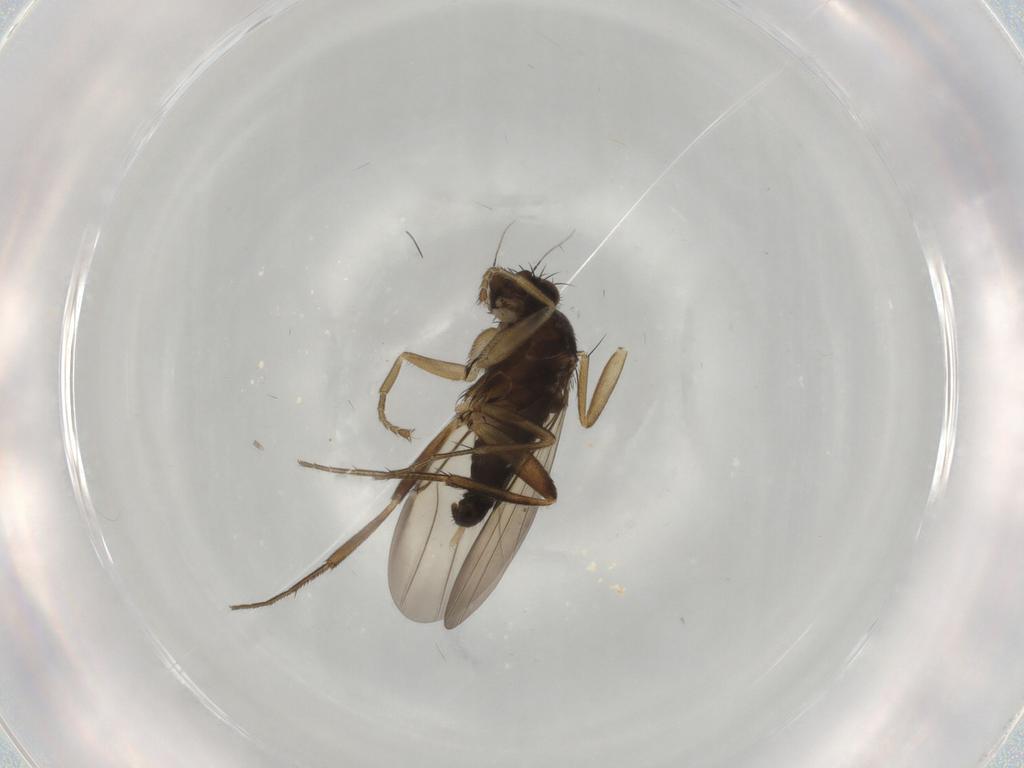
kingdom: Animalia
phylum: Arthropoda
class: Insecta
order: Diptera
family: Phoridae
